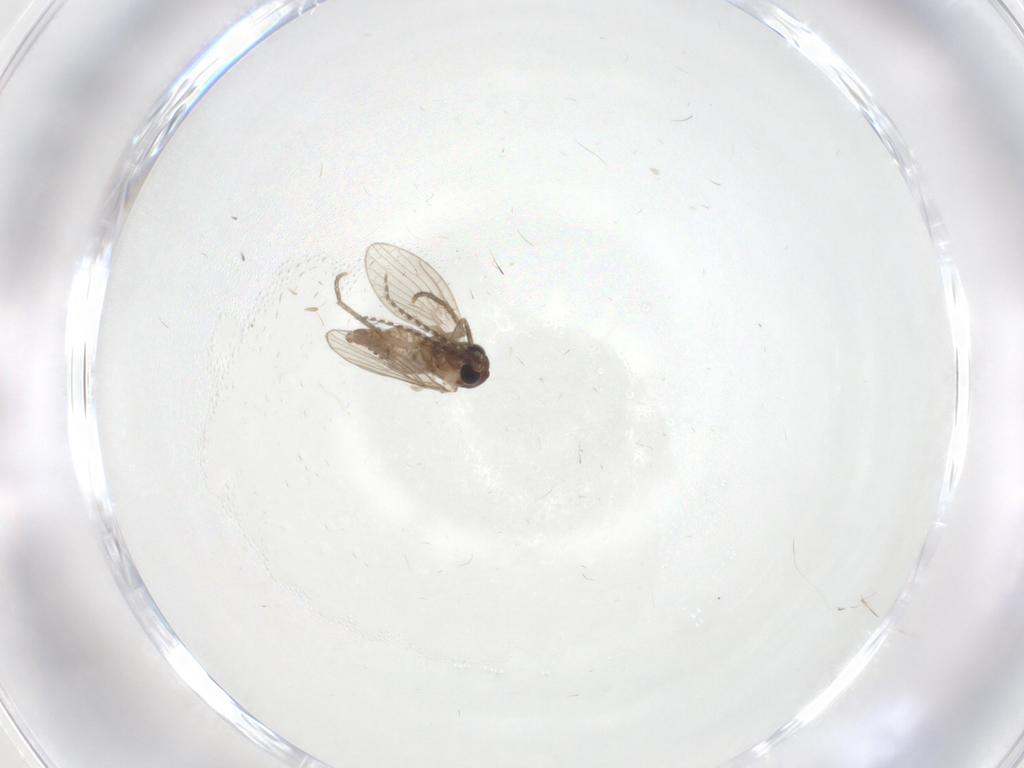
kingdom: Animalia
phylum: Arthropoda
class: Insecta
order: Diptera
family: Psychodidae
